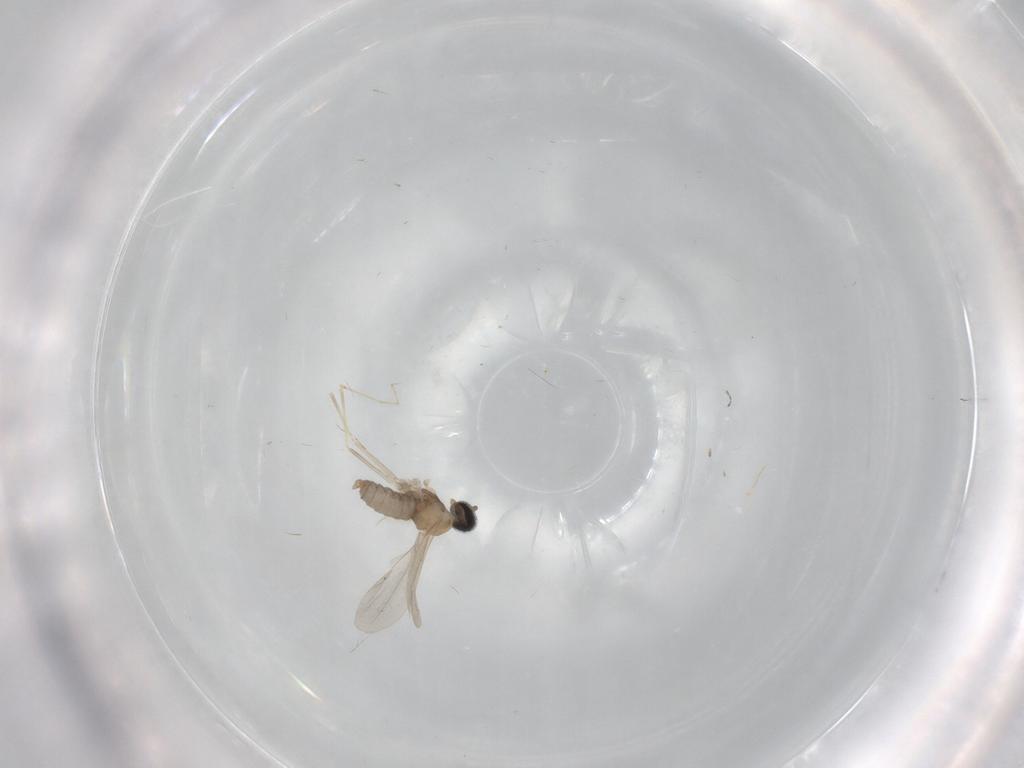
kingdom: Animalia
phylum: Arthropoda
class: Insecta
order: Diptera
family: Cecidomyiidae
